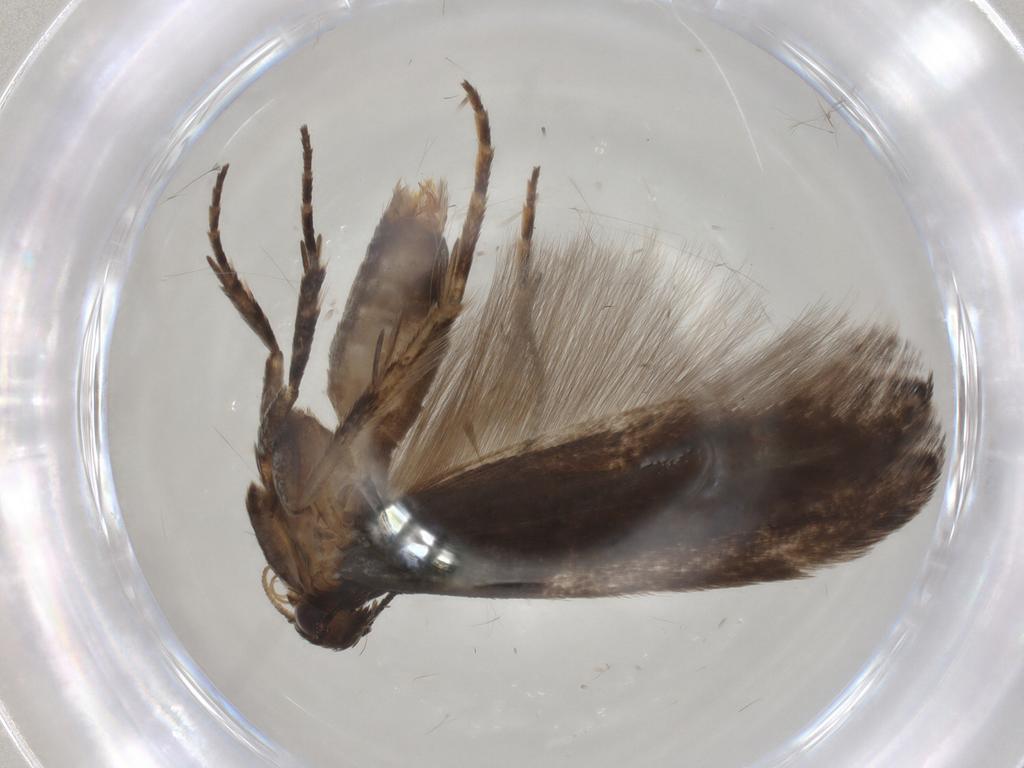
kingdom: Animalia
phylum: Arthropoda
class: Insecta
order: Lepidoptera
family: Gelechiidae
